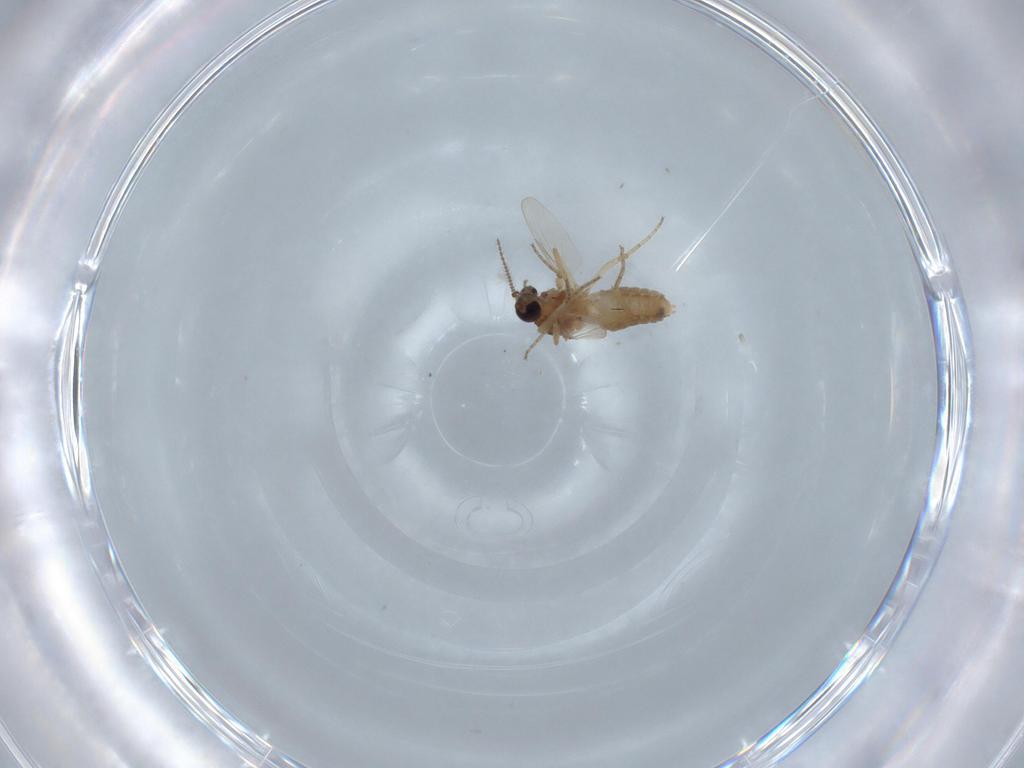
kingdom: Animalia
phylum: Arthropoda
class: Insecta
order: Diptera
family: Ceratopogonidae
